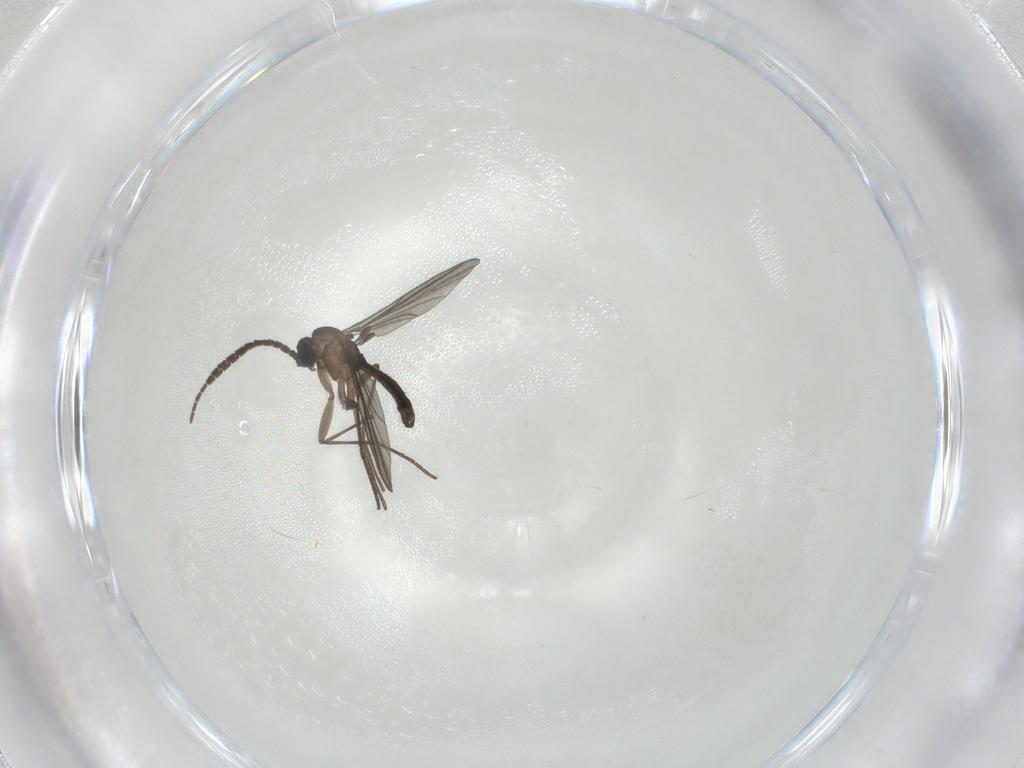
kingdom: Animalia
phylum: Arthropoda
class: Insecta
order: Diptera
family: Sciaridae
